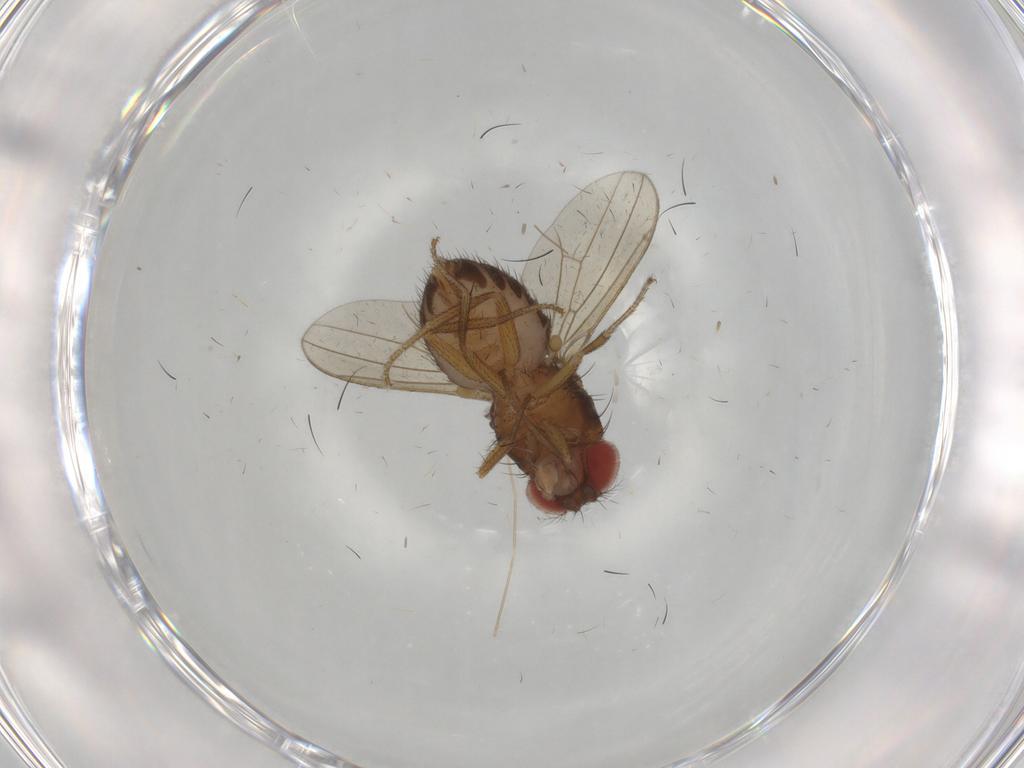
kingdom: Animalia
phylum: Arthropoda
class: Insecta
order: Diptera
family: Drosophilidae
